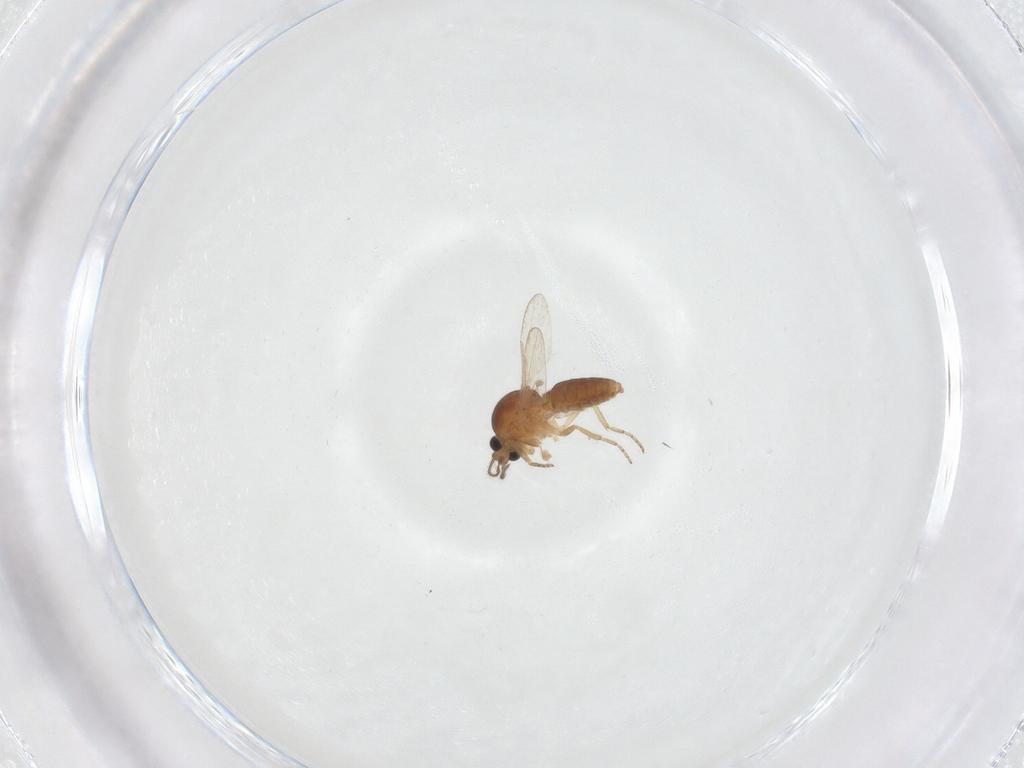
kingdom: Animalia
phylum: Arthropoda
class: Insecta
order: Diptera
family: Ceratopogonidae
